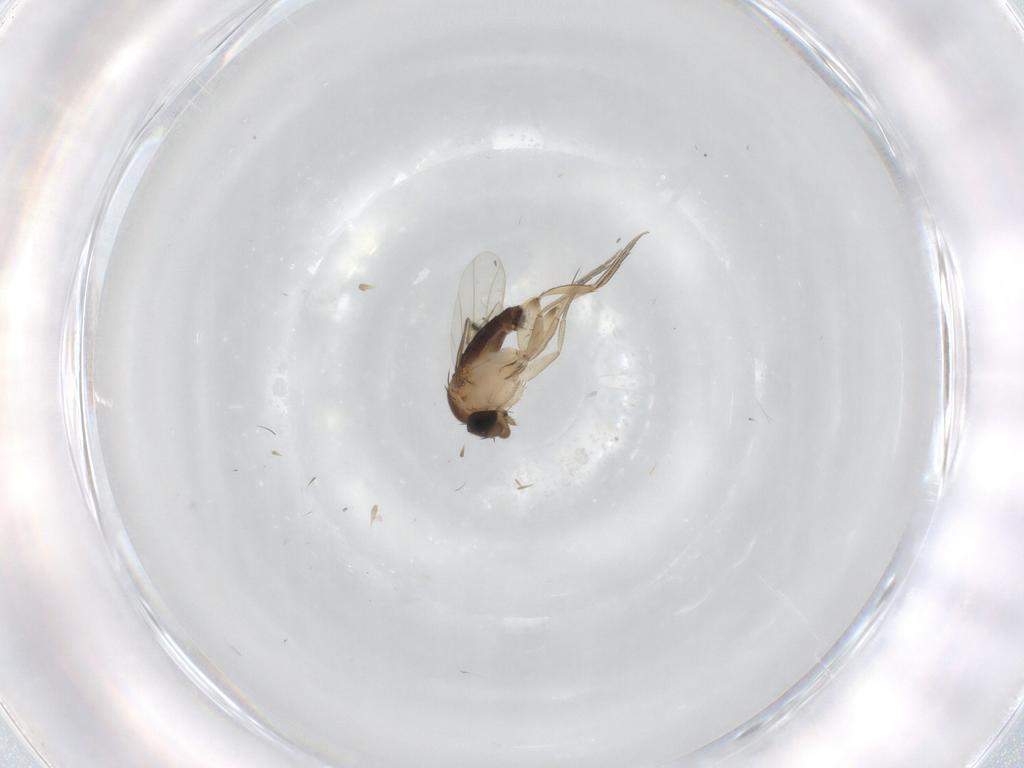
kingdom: Animalia
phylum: Arthropoda
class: Insecta
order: Diptera
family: Phoridae
